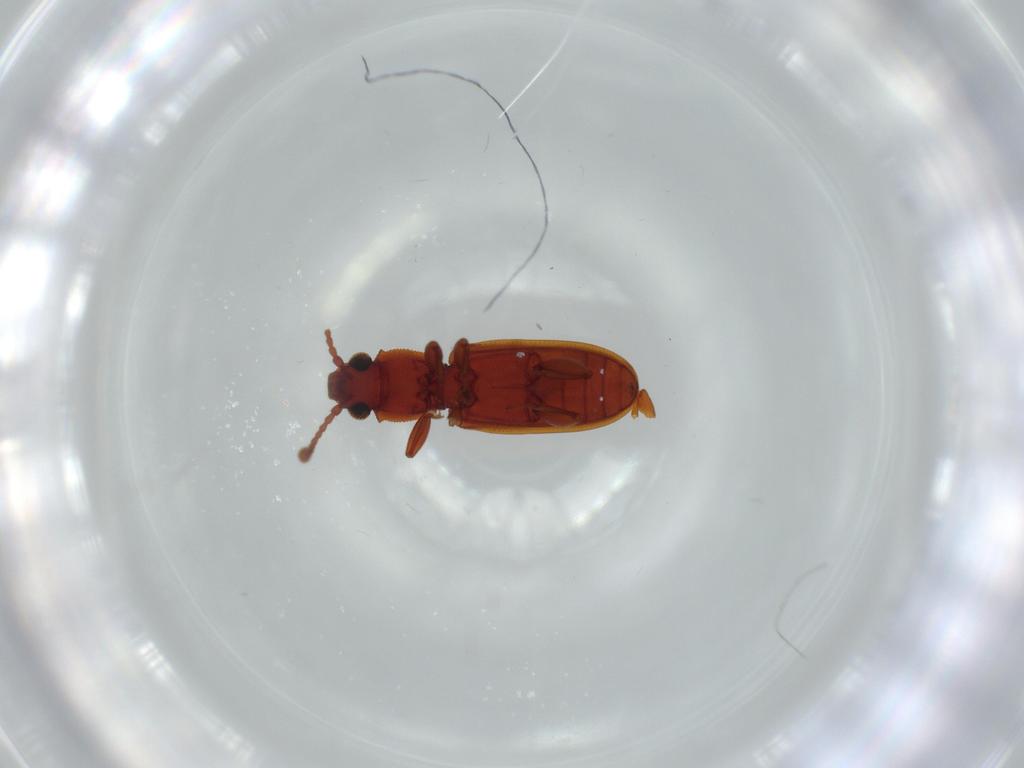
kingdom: Animalia
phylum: Arthropoda
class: Insecta
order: Coleoptera
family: Silvanidae
